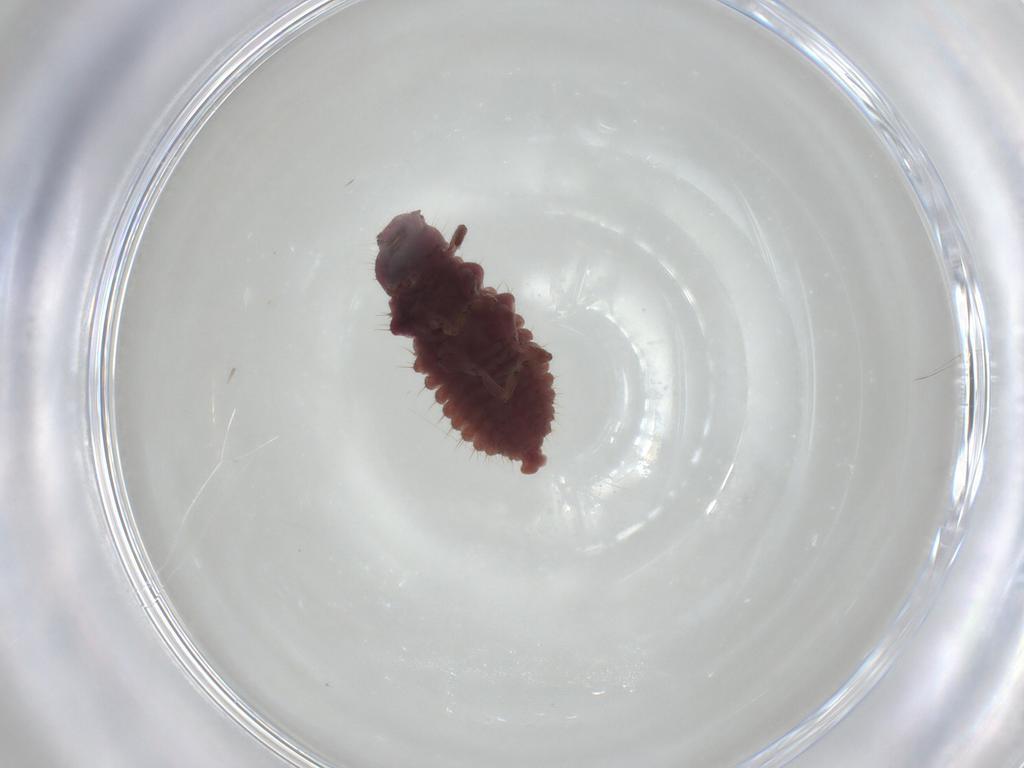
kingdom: Animalia
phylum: Arthropoda
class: Insecta
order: Coleoptera
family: Coccinellidae
